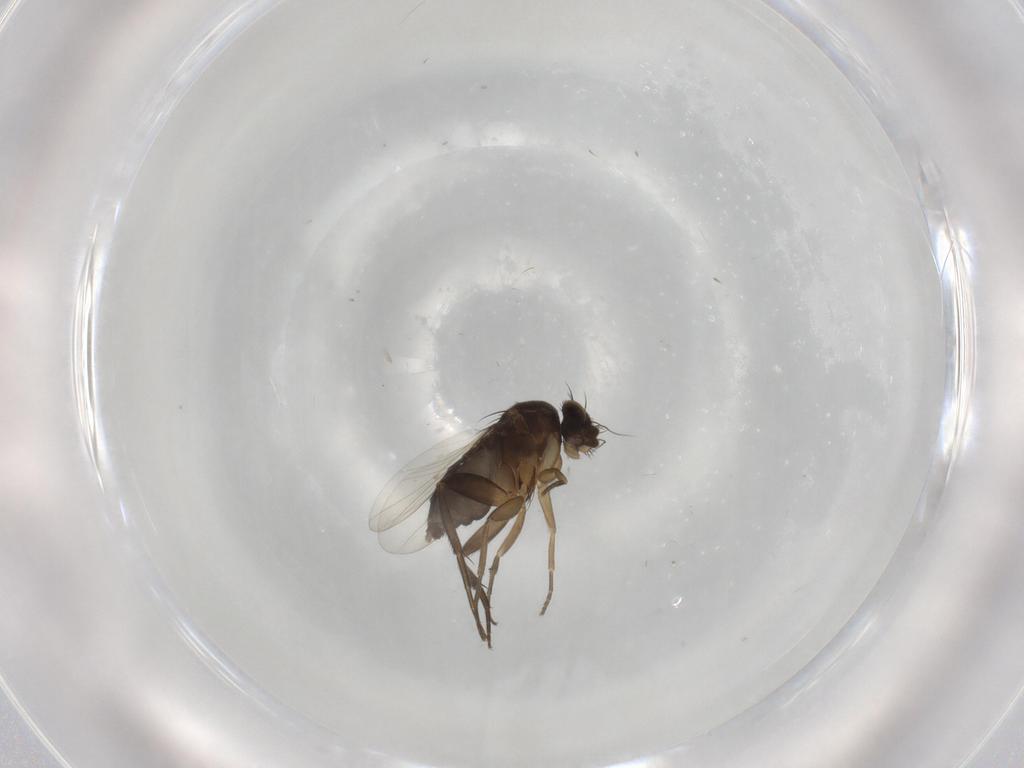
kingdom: Animalia
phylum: Arthropoda
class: Insecta
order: Diptera
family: Phoridae
